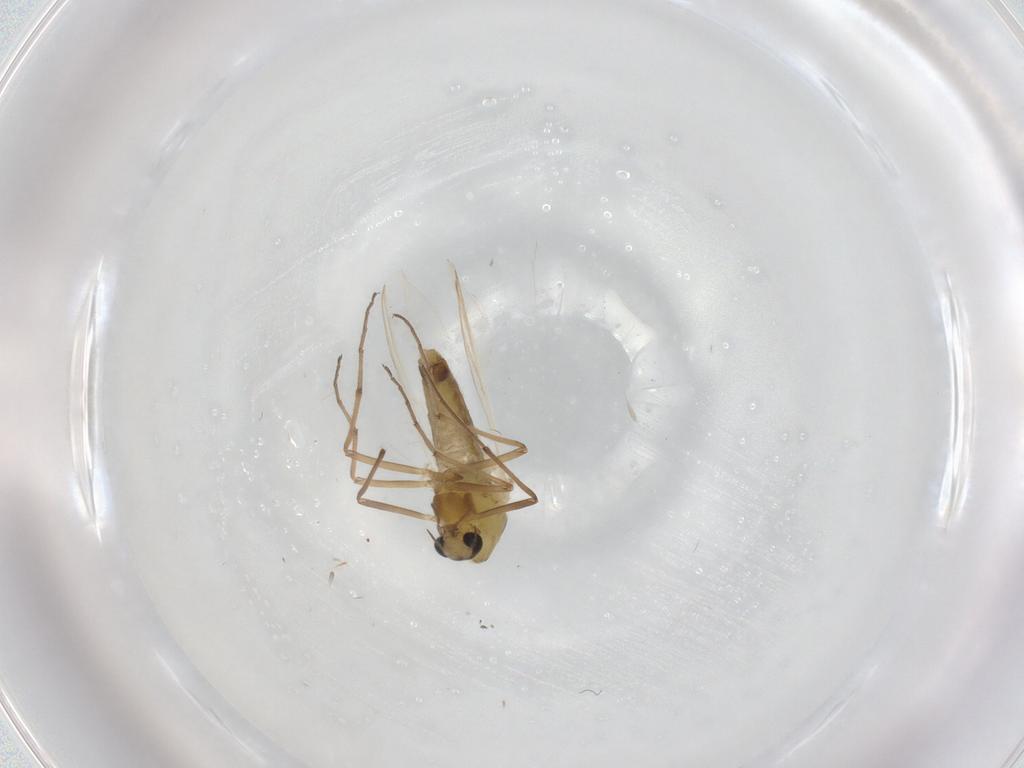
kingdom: Animalia
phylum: Arthropoda
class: Insecta
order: Diptera
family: Chironomidae
